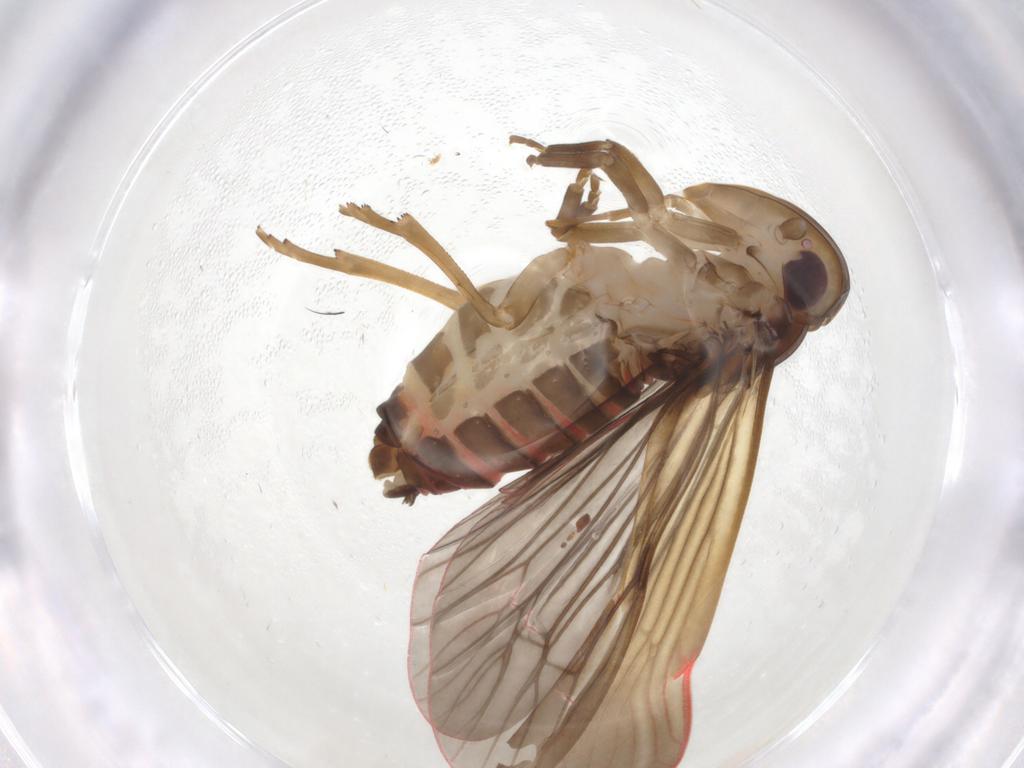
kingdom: Animalia
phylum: Arthropoda
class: Insecta
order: Hemiptera
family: Achilidae
